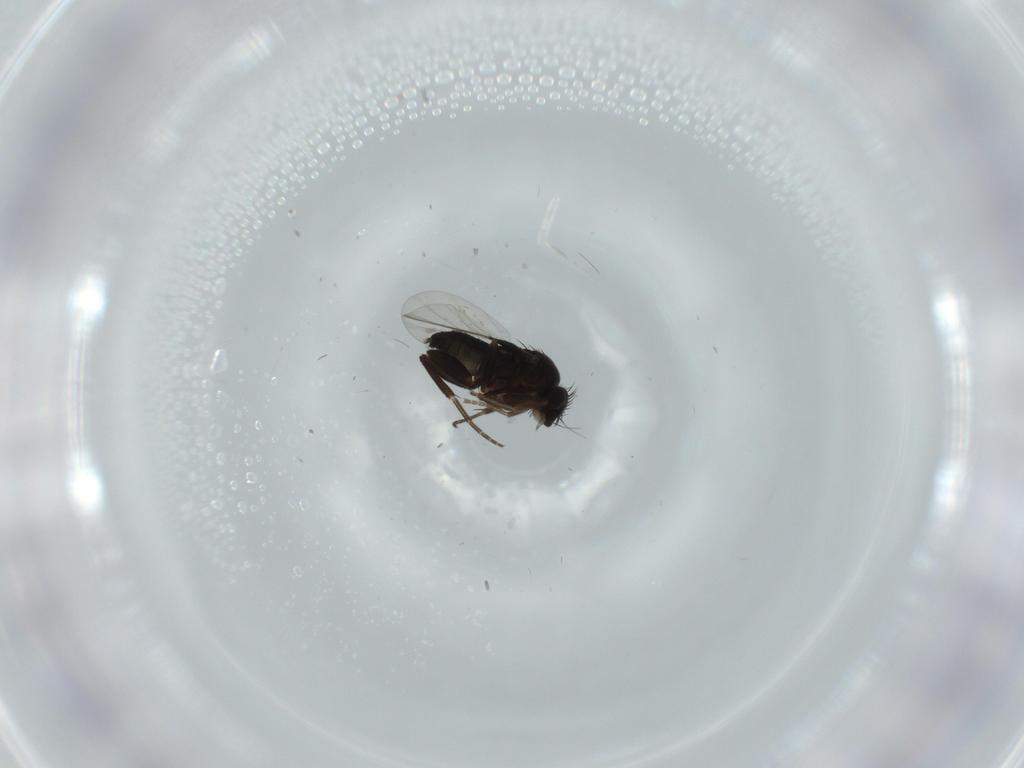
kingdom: Animalia
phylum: Arthropoda
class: Insecta
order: Diptera
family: Phoridae
